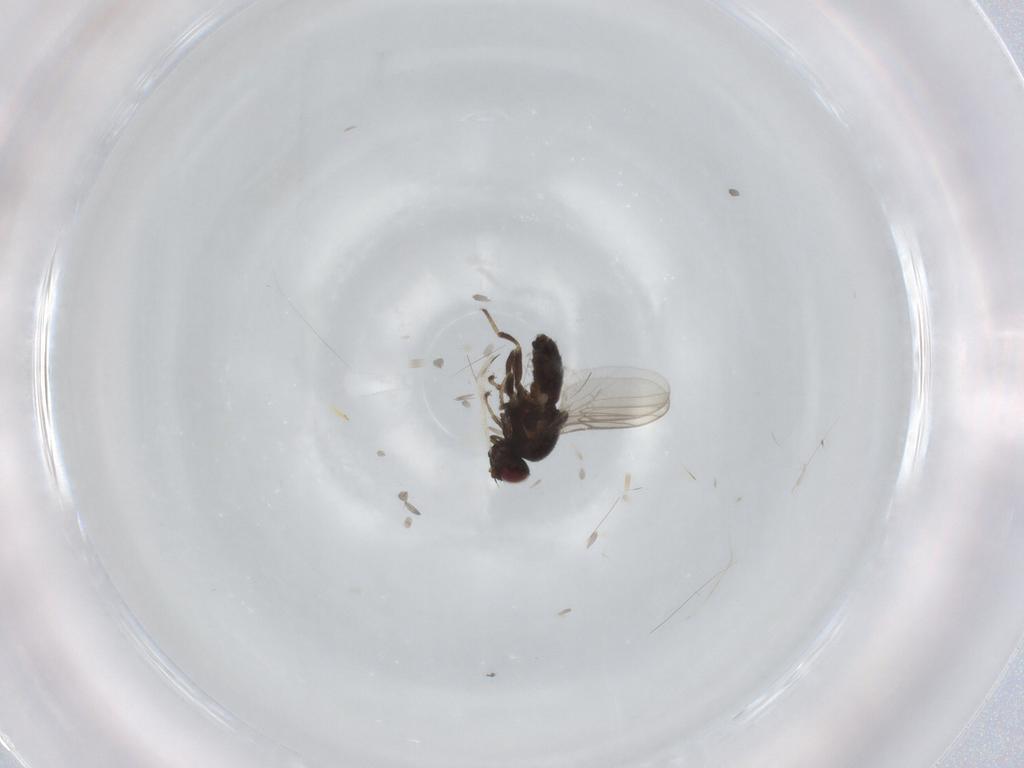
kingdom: Animalia
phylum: Arthropoda
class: Insecta
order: Diptera
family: Chloropidae
